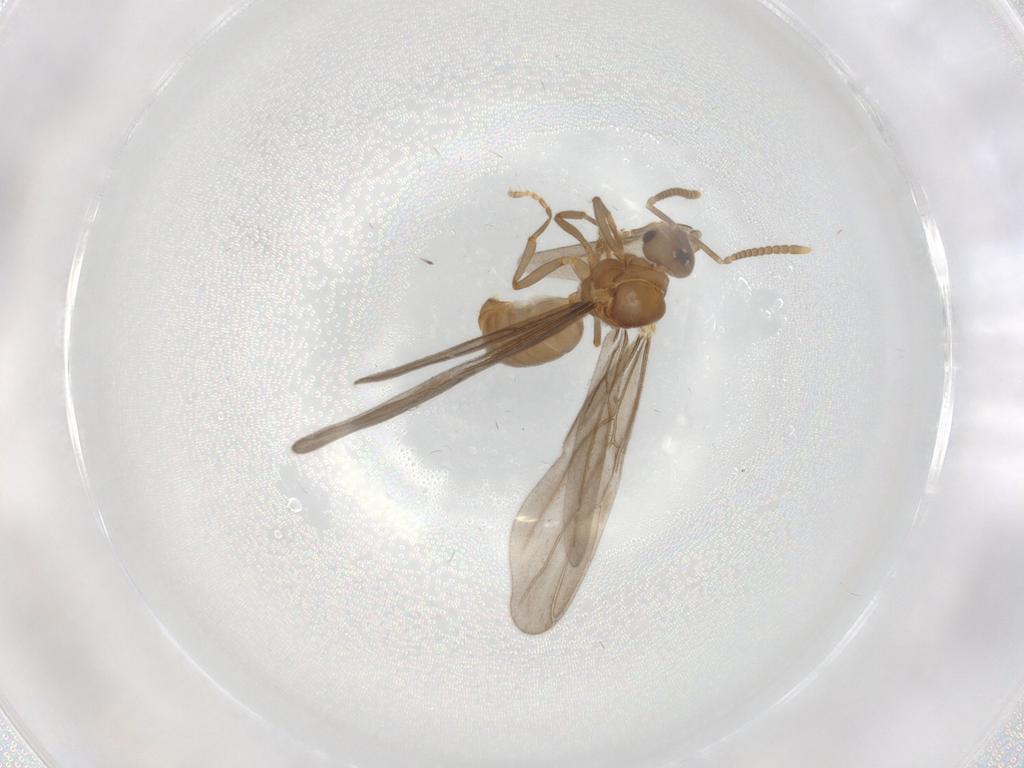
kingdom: Animalia
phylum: Arthropoda
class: Insecta
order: Hymenoptera
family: Formicidae
